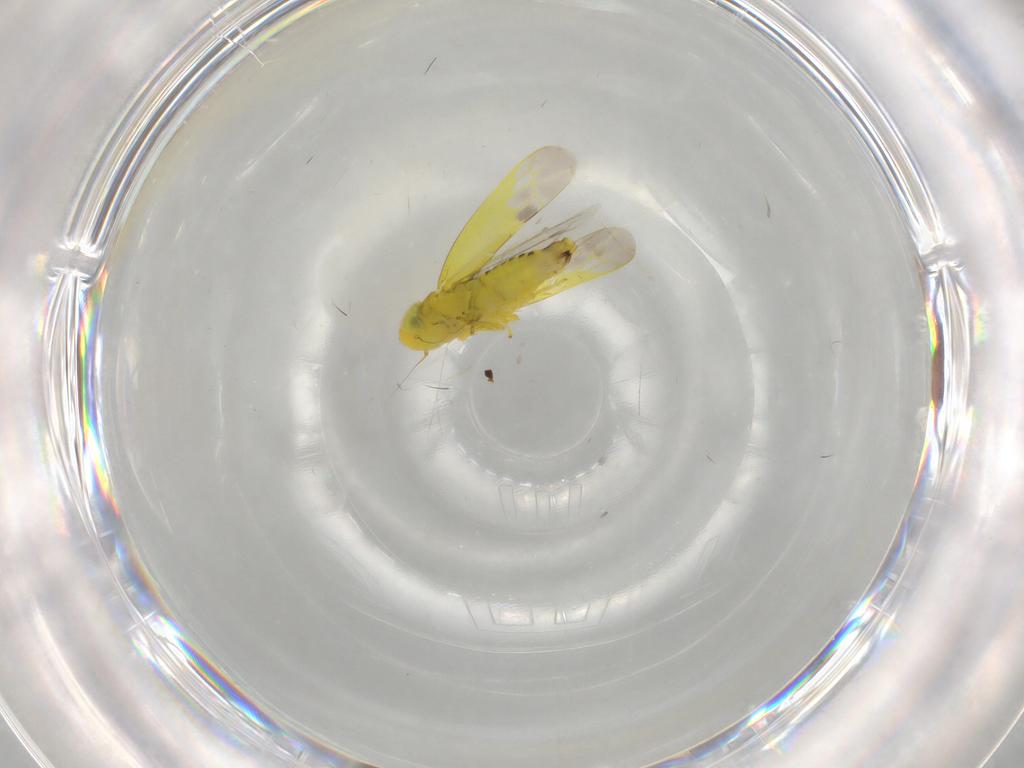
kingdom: Animalia
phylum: Arthropoda
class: Insecta
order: Hemiptera
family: Cicadellidae
